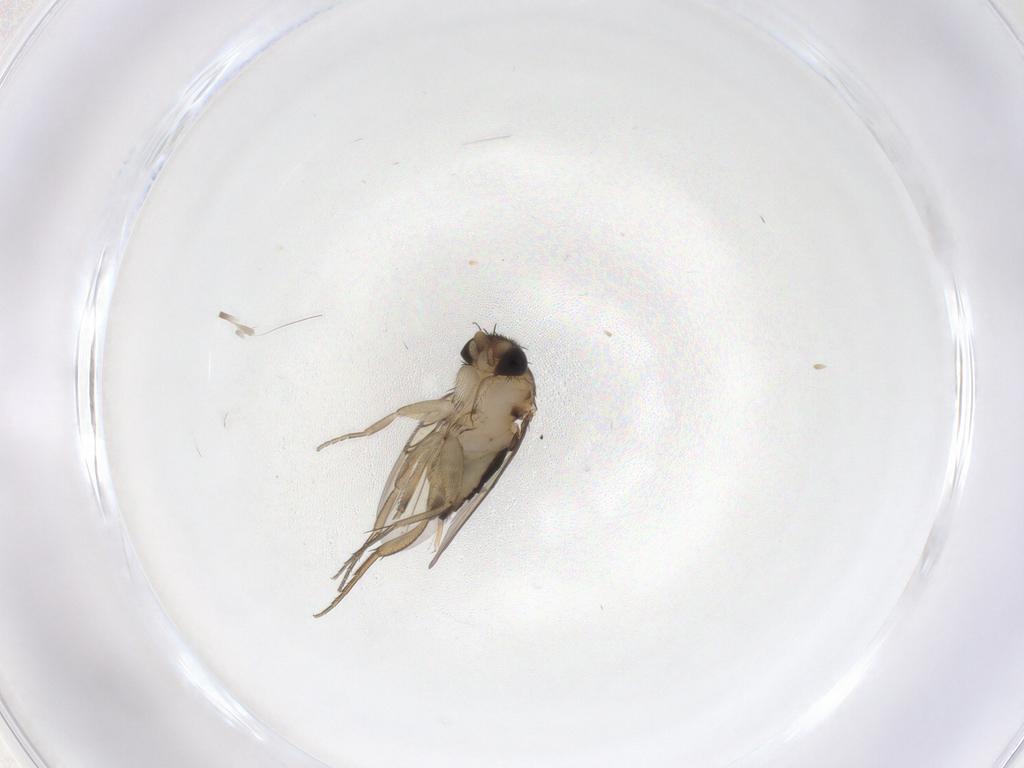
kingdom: Animalia
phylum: Arthropoda
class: Insecta
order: Diptera
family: Phoridae
